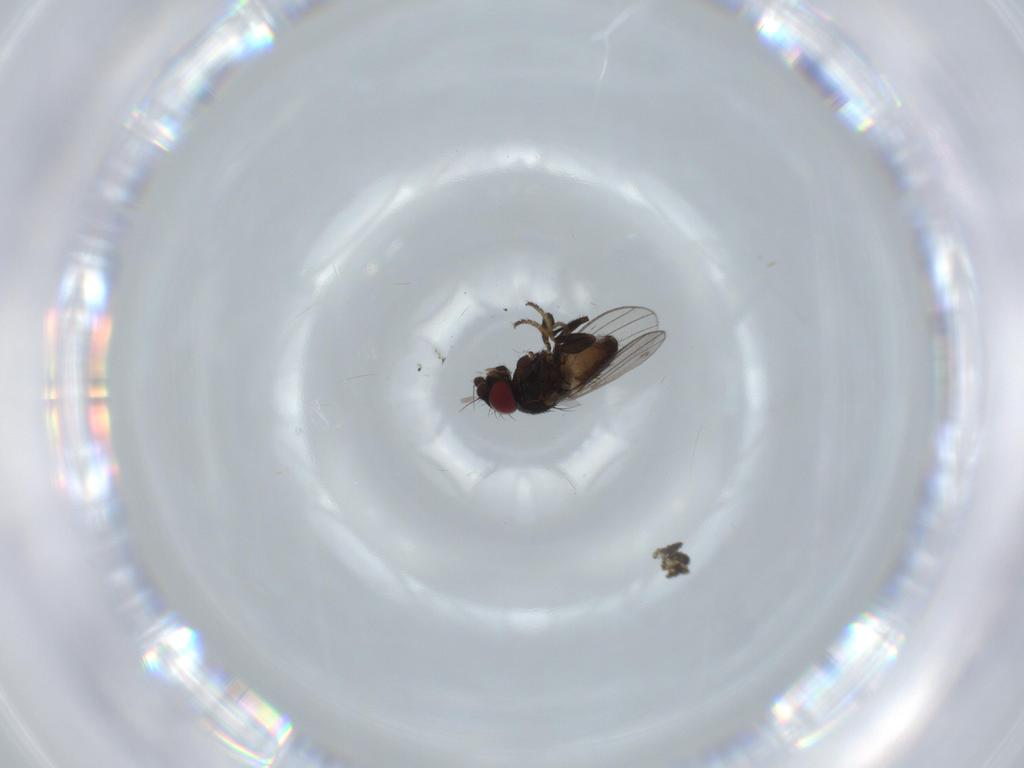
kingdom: Animalia
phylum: Arthropoda
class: Insecta
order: Diptera
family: Milichiidae
